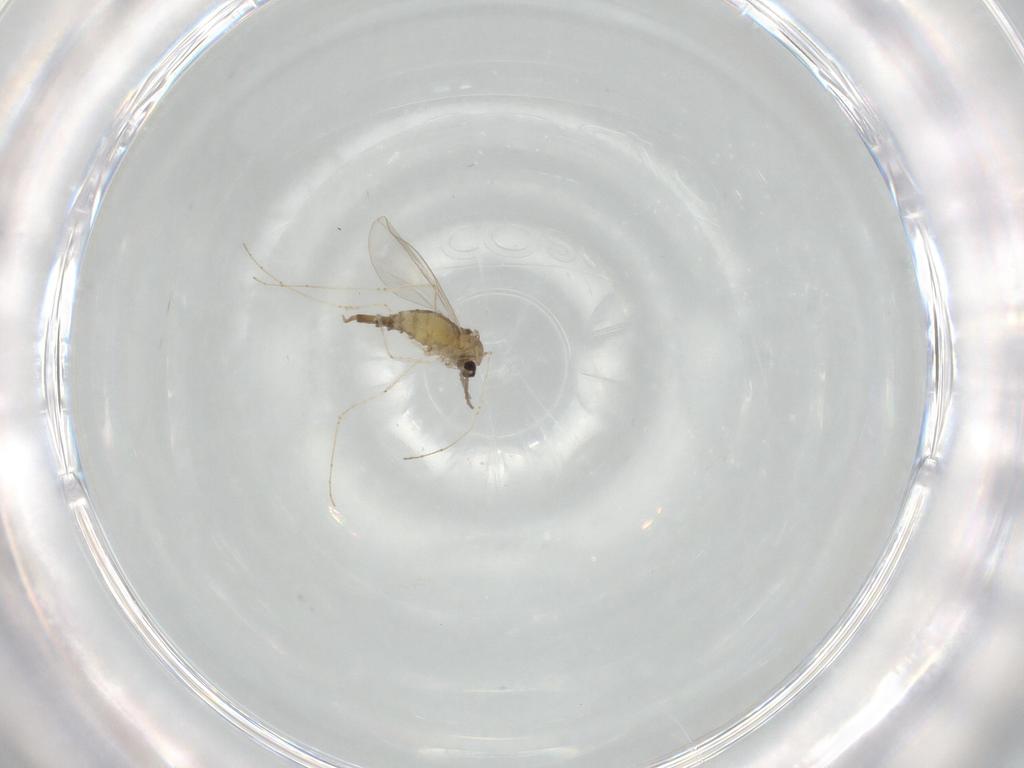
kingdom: Animalia
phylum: Arthropoda
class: Insecta
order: Diptera
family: Cecidomyiidae
